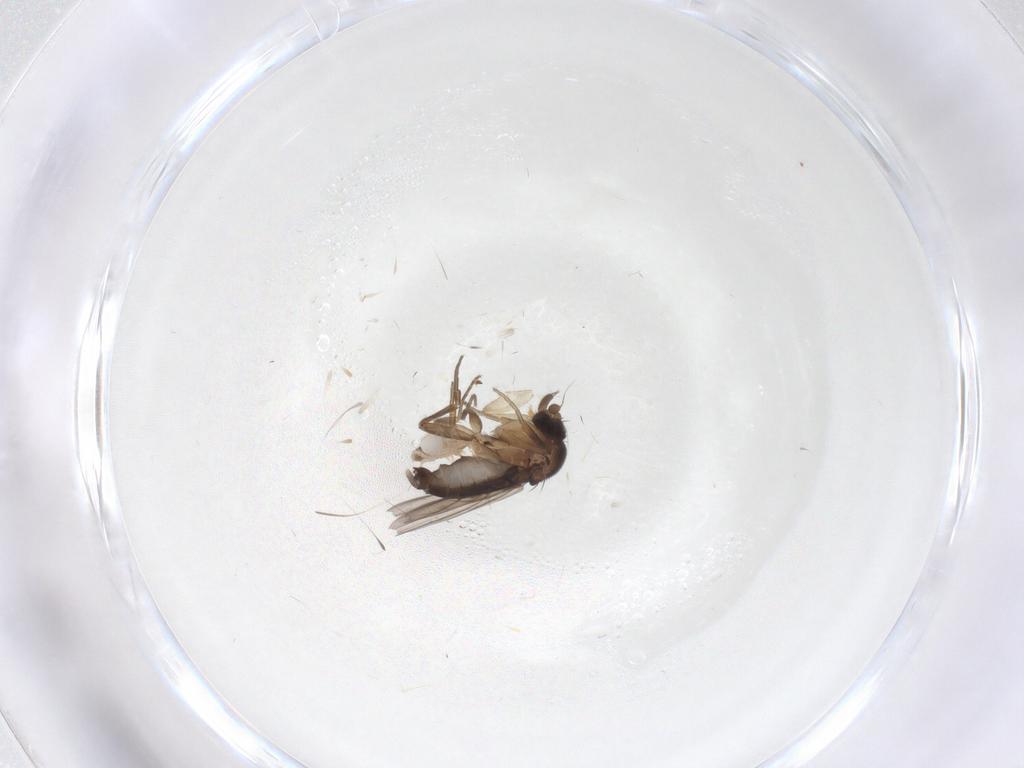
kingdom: Animalia
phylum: Arthropoda
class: Insecta
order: Diptera
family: Phoridae
